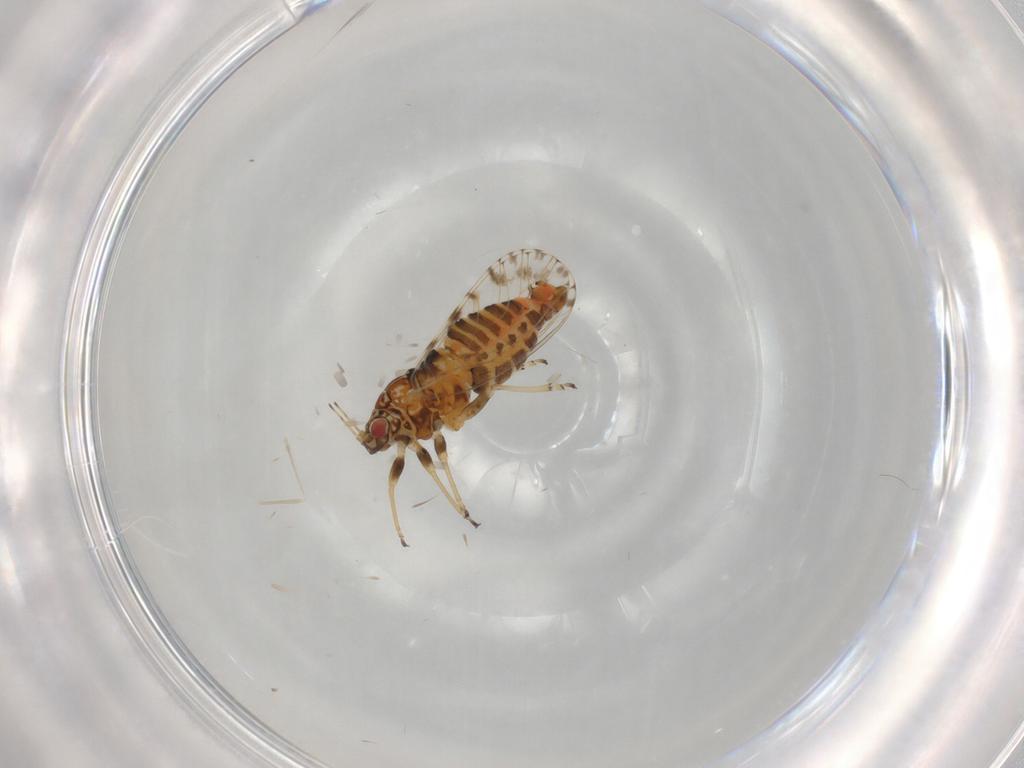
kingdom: Animalia
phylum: Arthropoda
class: Insecta
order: Hemiptera
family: Psyllidae
